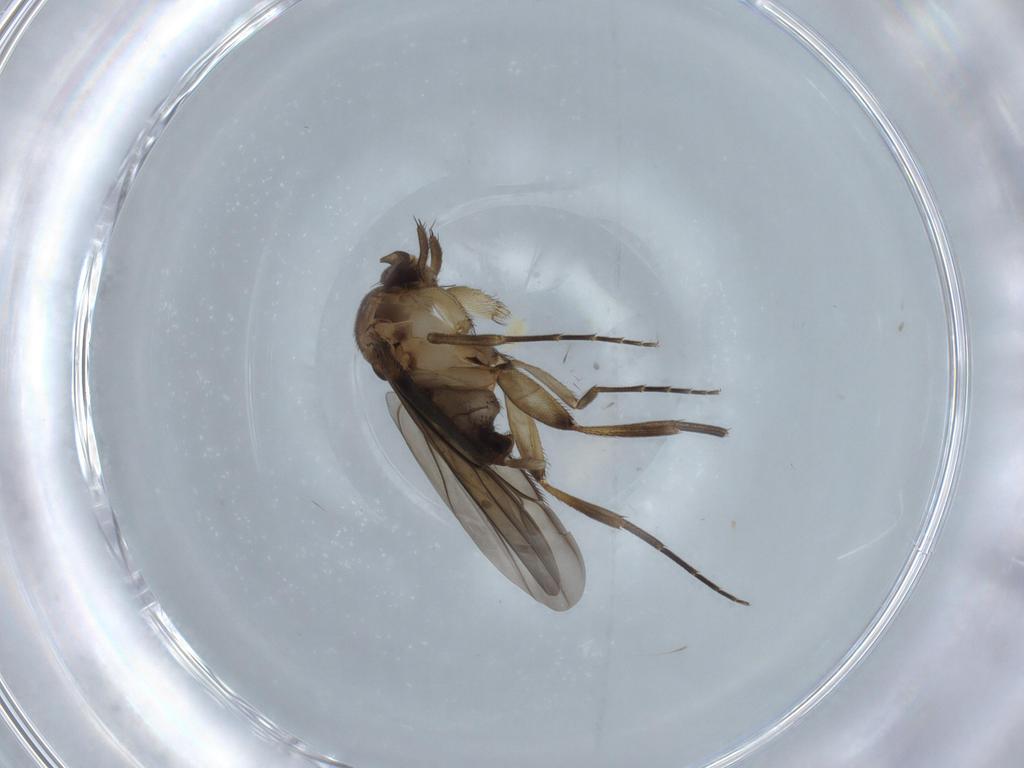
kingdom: Animalia
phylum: Arthropoda
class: Insecta
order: Diptera
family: Phoridae
